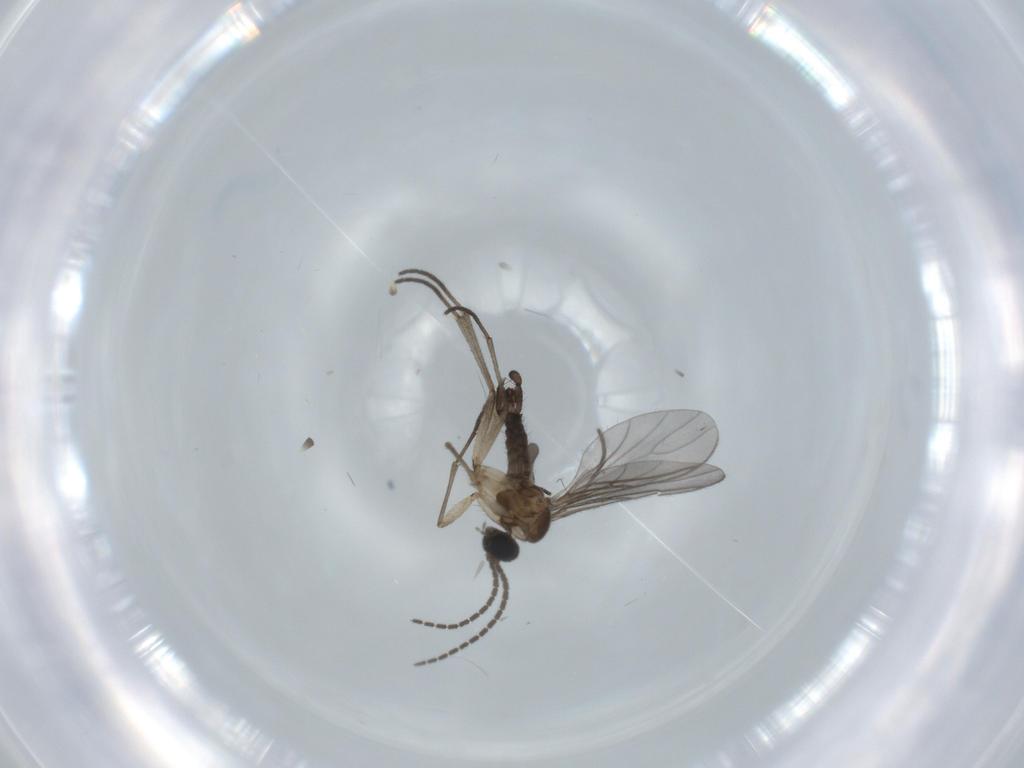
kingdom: Animalia
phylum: Arthropoda
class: Insecta
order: Diptera
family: Sciaridae
